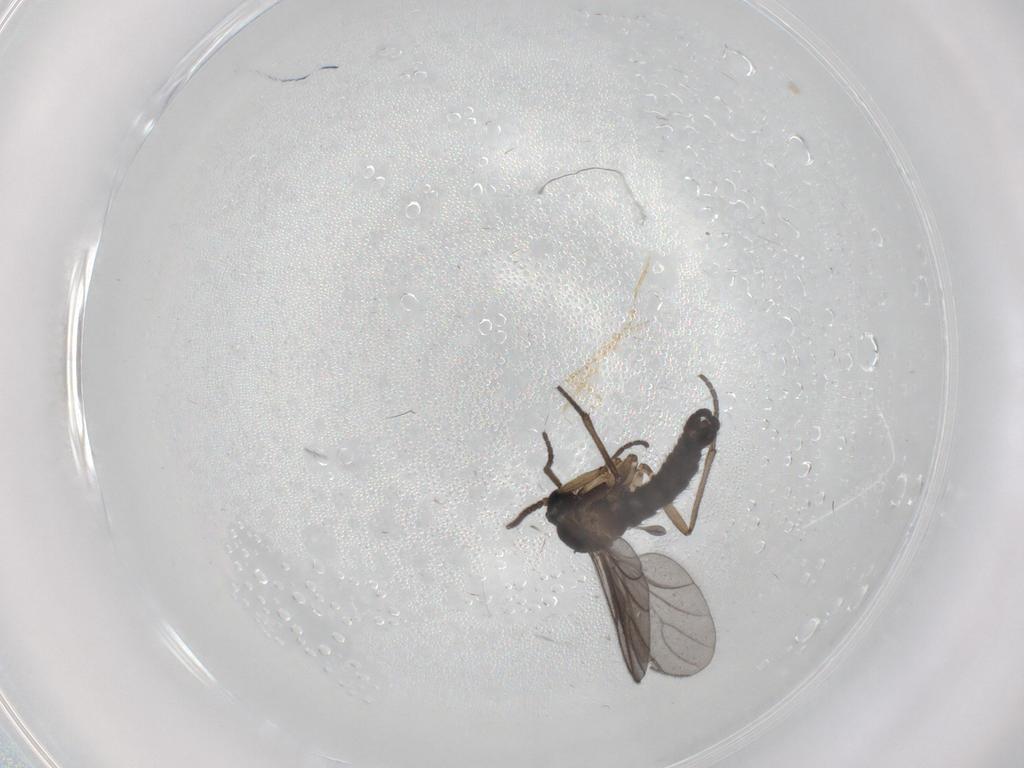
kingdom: Animalia
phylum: Arthropoda
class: Insecta
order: Diptera
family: Sciaridae
